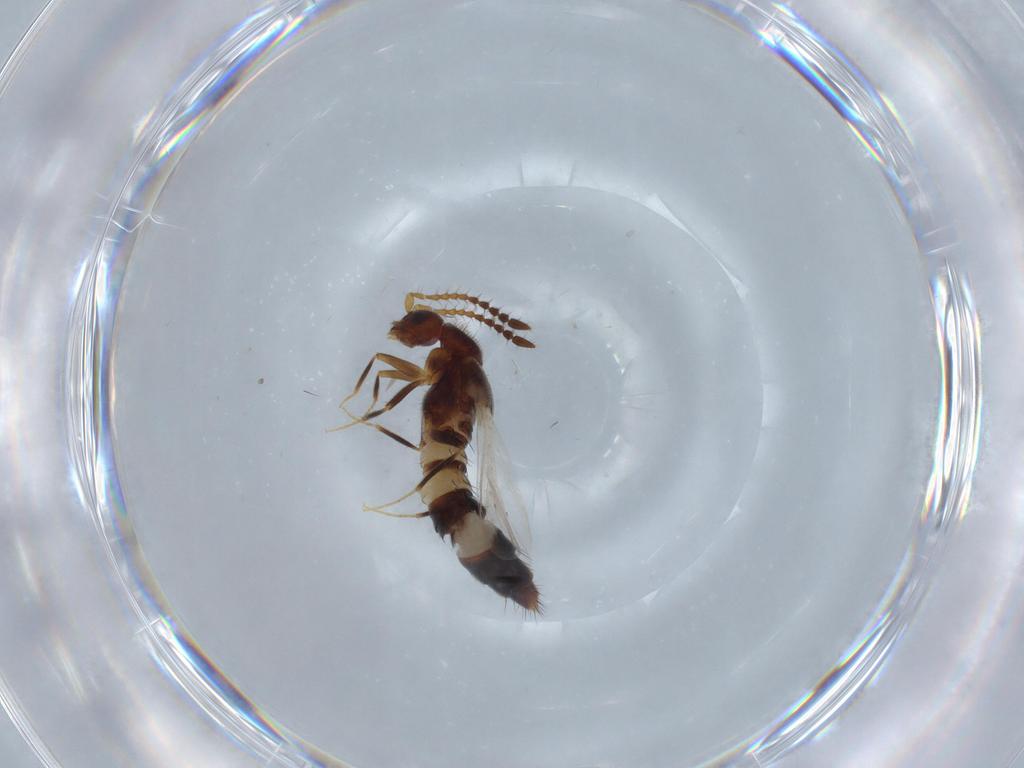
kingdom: Animalia
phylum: Arthropoda
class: Insecta
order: Coleoptera
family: Staphylinidae
